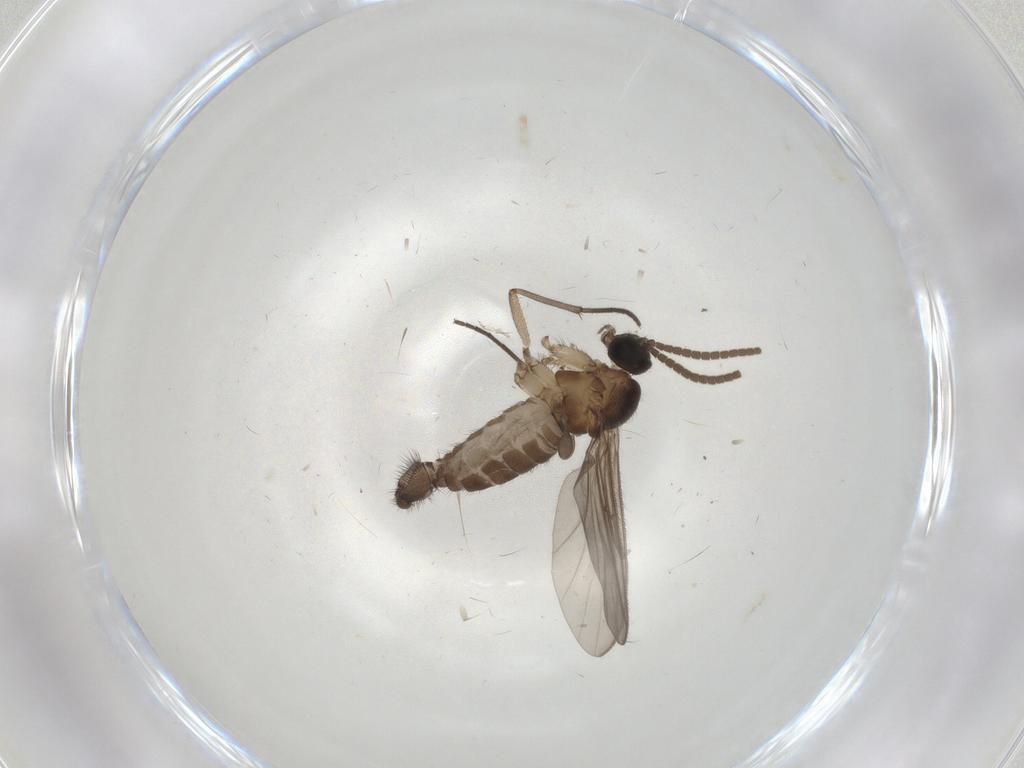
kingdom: Animalia
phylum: Arthropoda
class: Insecta
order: Diptera
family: Sciaridae
